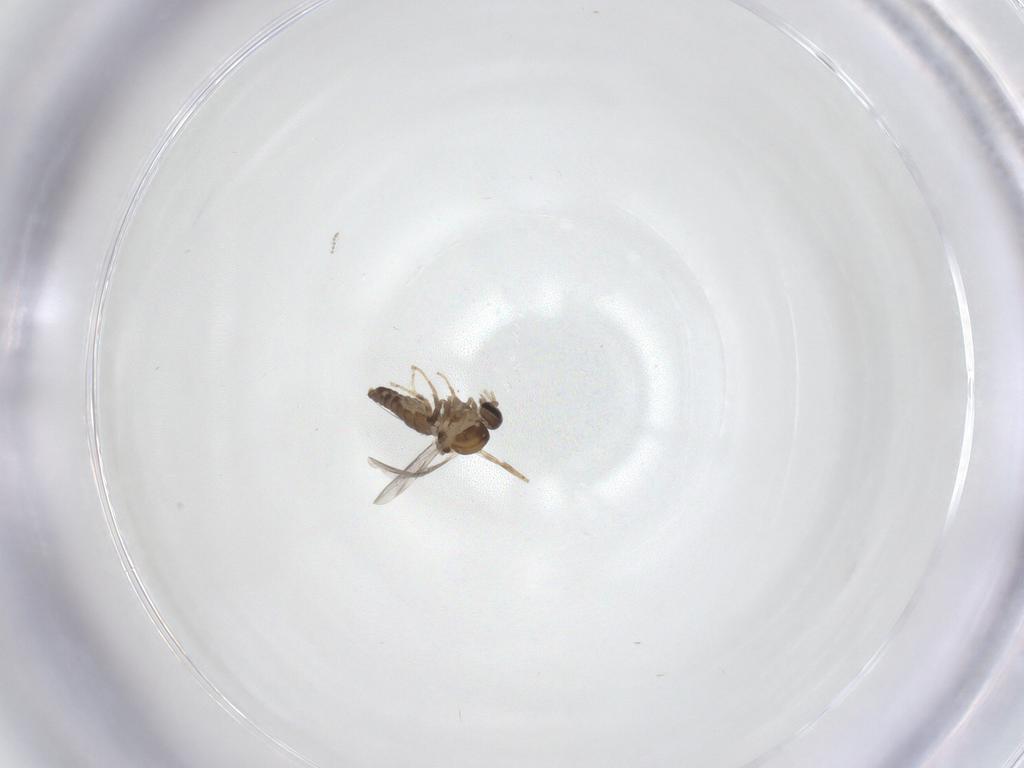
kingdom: Animalia
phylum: Arthropoda
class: Insecta
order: Diptera
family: Ceratopogonidae
